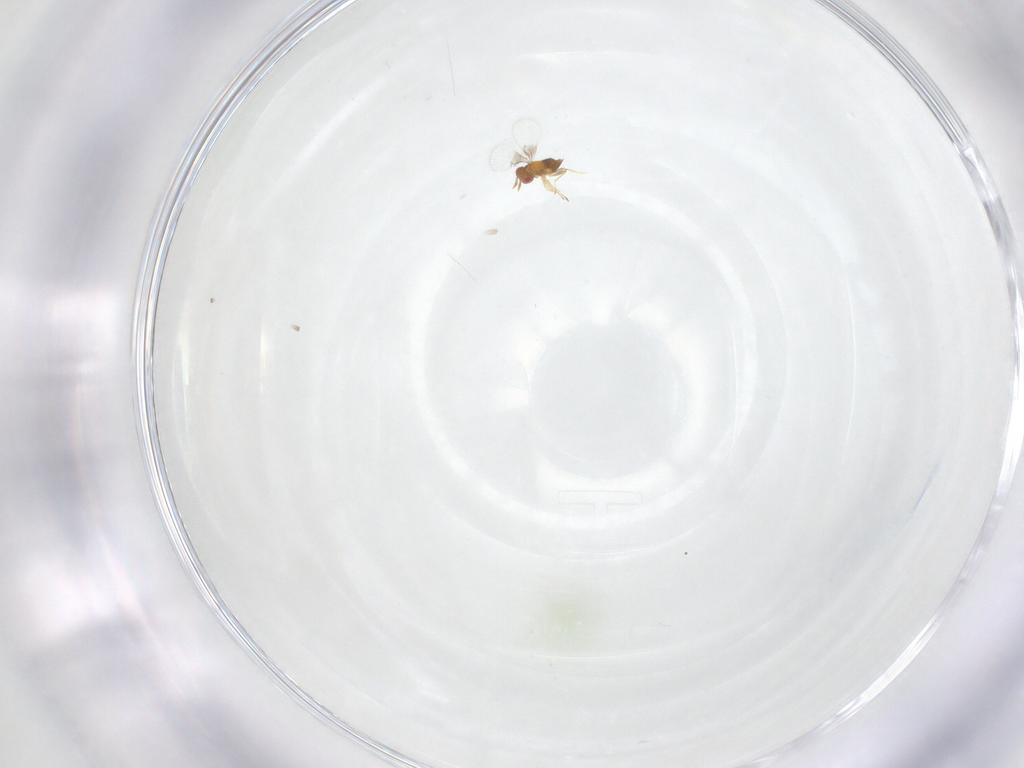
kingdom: Animalia
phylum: Arthropoda
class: Insecta
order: Hymenoptera
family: Trichogrammatidae
